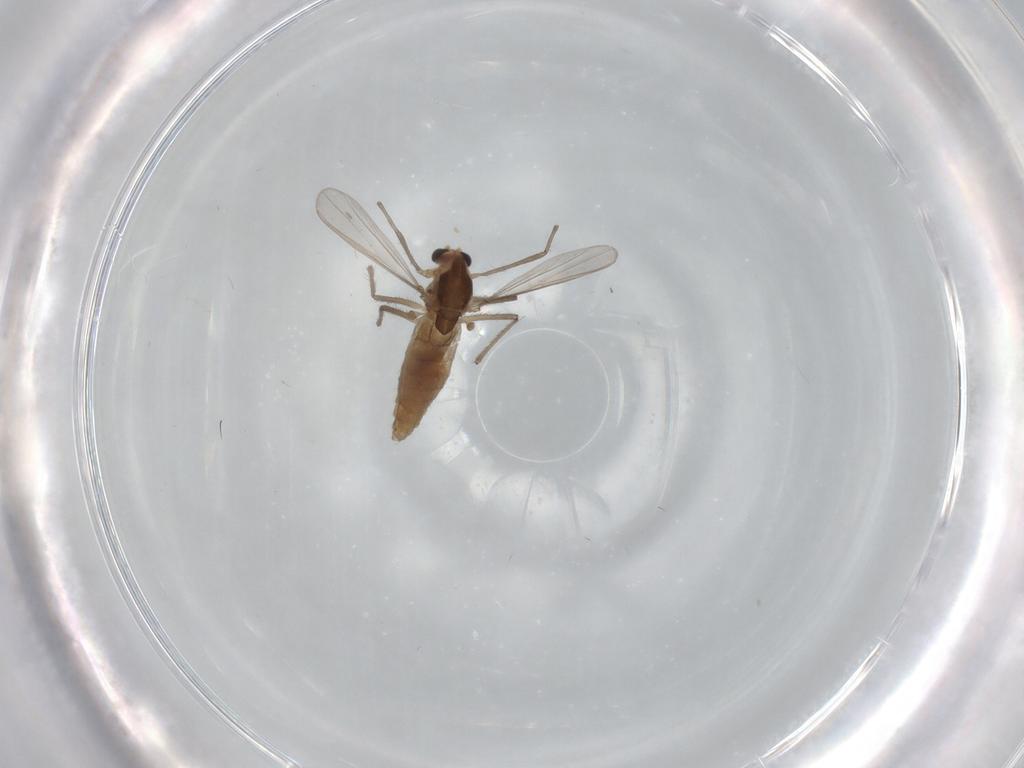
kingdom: Animalia
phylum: Arthropoda
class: Insecta
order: Diptera
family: Chironomidae
